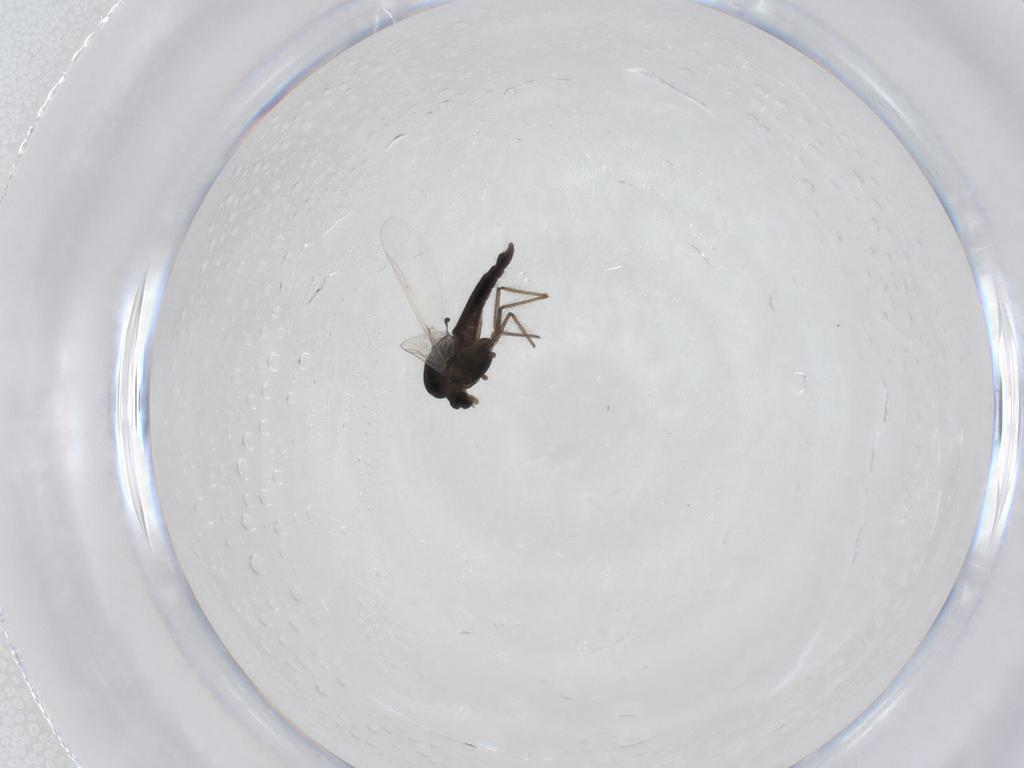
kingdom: Animalia
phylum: Arthropoda
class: Insecta
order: Diptera
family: Chironomidae
